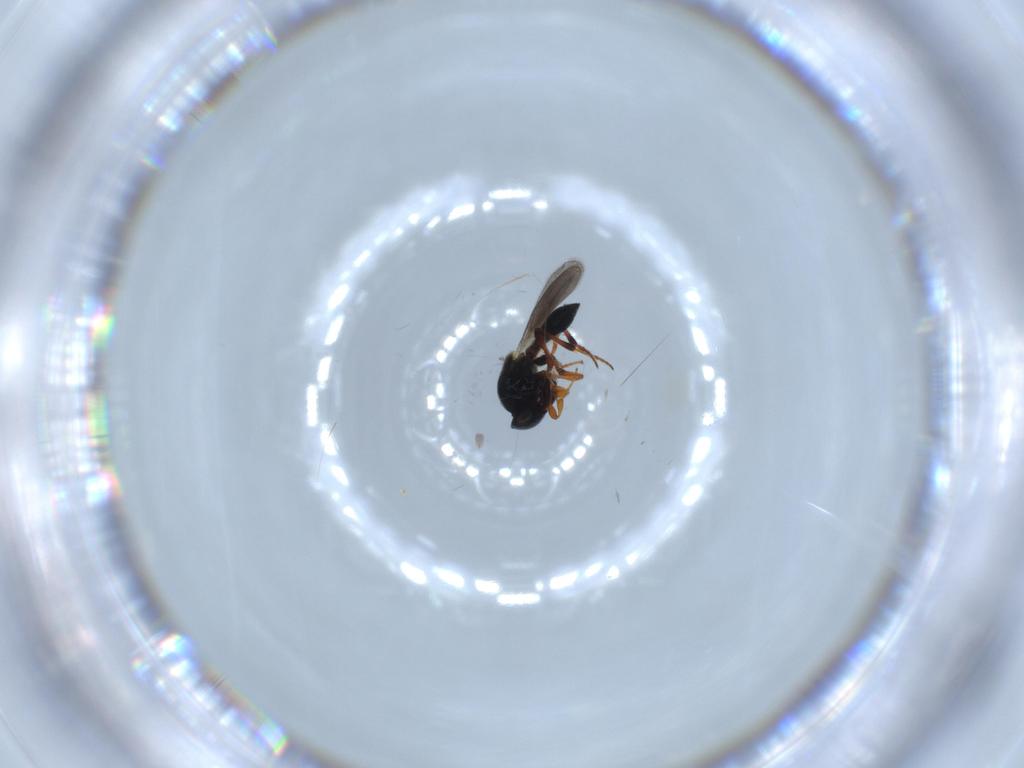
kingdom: Animalia
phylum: Arthropoda
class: Insecta
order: Hymenoptera
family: Platygastridae
